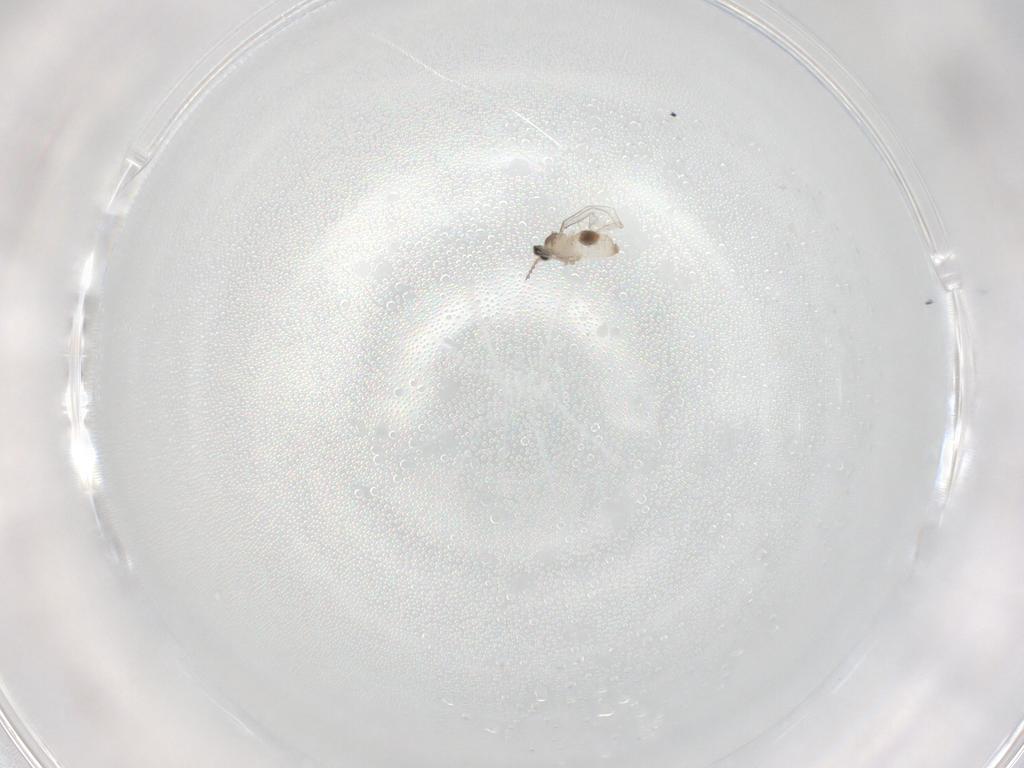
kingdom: Animalia
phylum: Arthropoda
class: Insecta
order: Diptera
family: Cecidomyiidae
